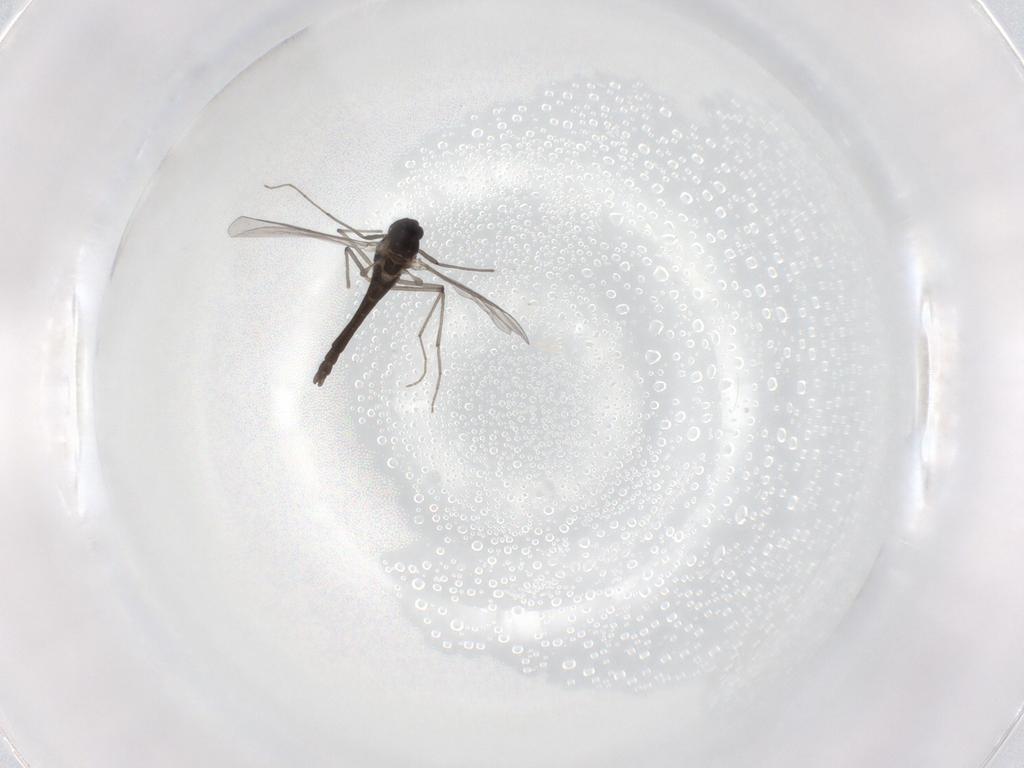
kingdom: Animalia
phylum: Arthropoda
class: Insecta
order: Diptera
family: Chironomidae
